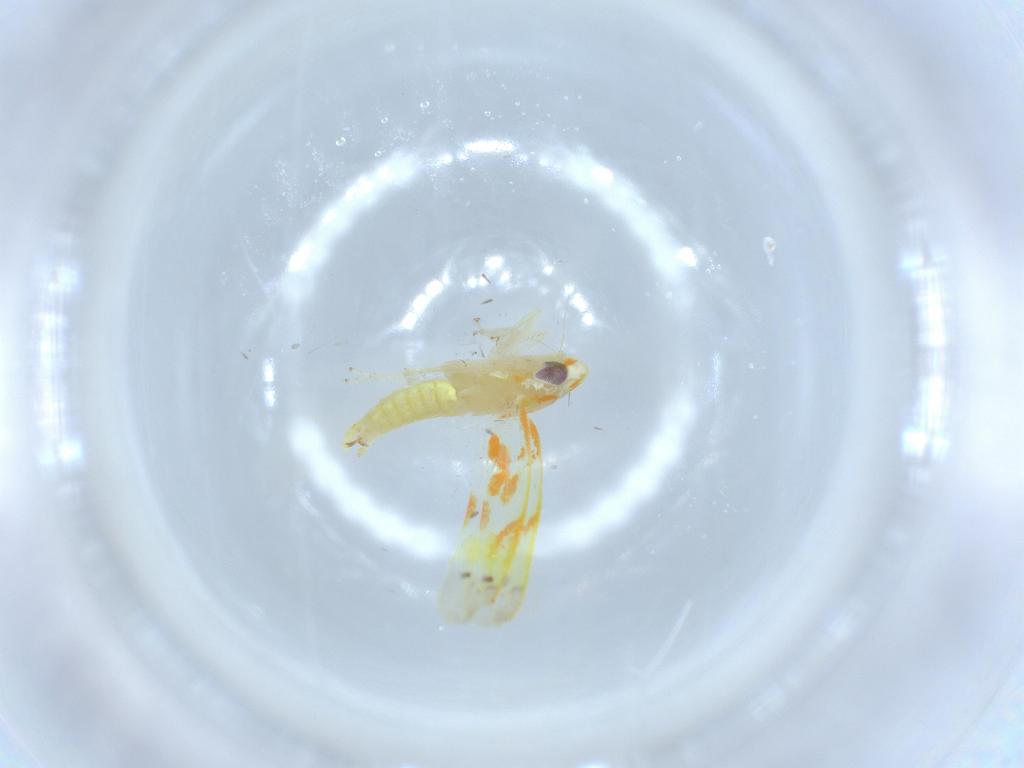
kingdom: Animalia
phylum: Arthropoda
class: Insecta
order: Hemiptera
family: Cicadellidae
